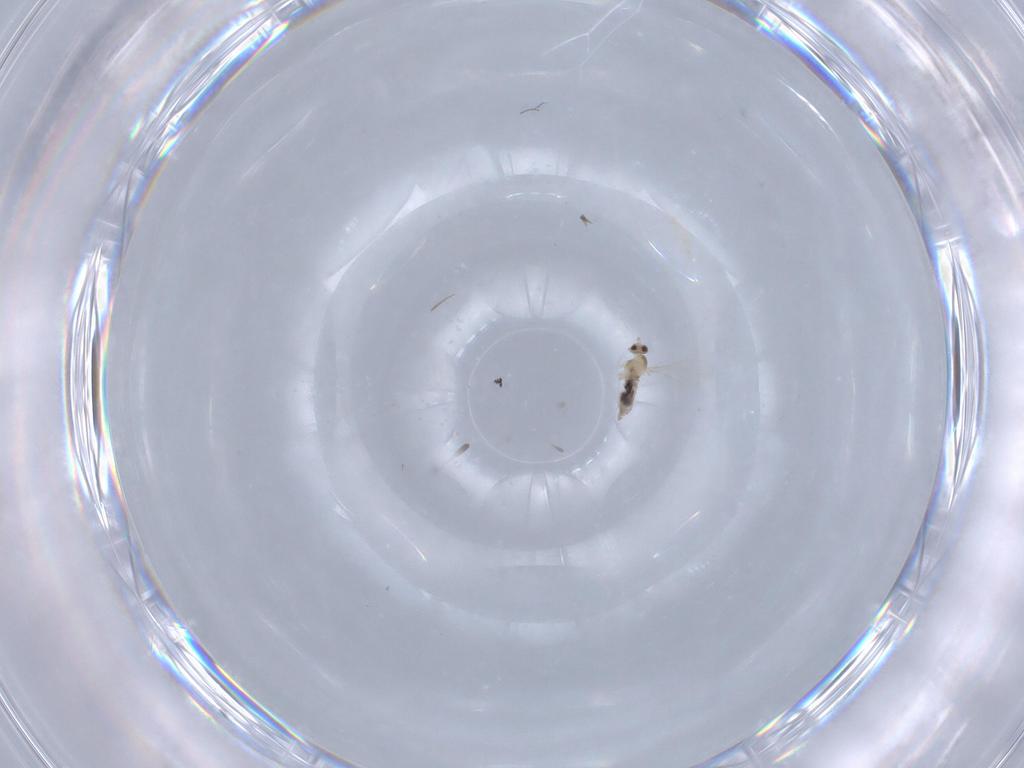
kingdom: Animalia
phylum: Arthropoda
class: Insecta
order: Diptera
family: Cecidomyiidae
